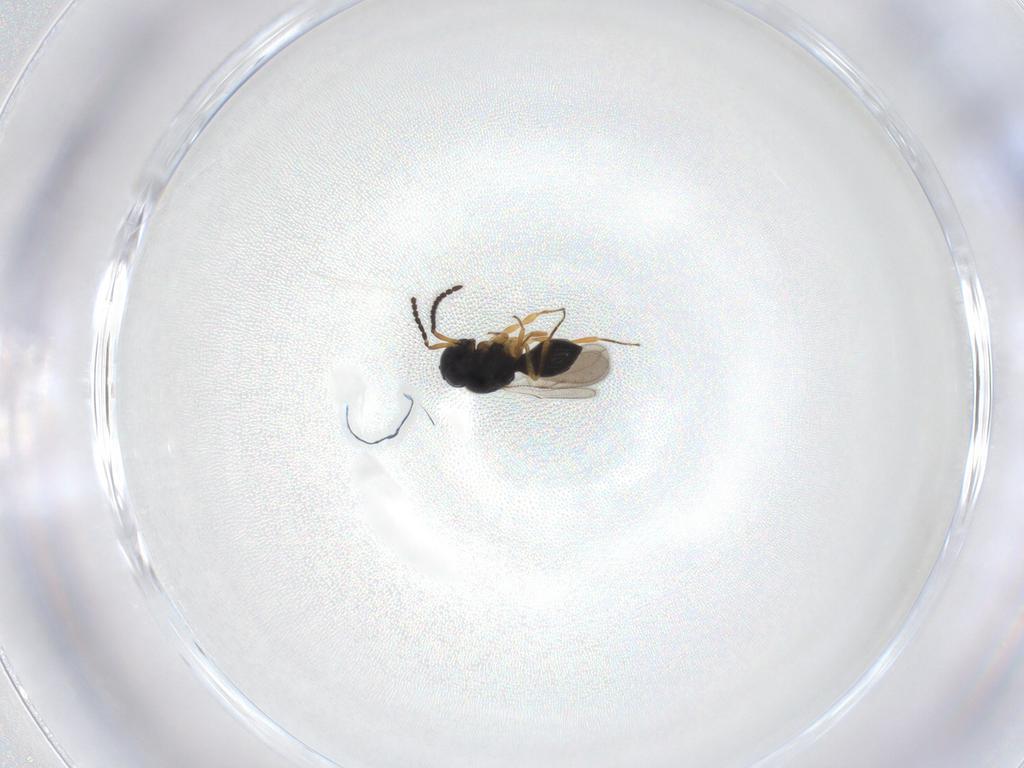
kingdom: Animalia
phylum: Arthropoda
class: Insecta
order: Hymenoptera
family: Scelionidae
